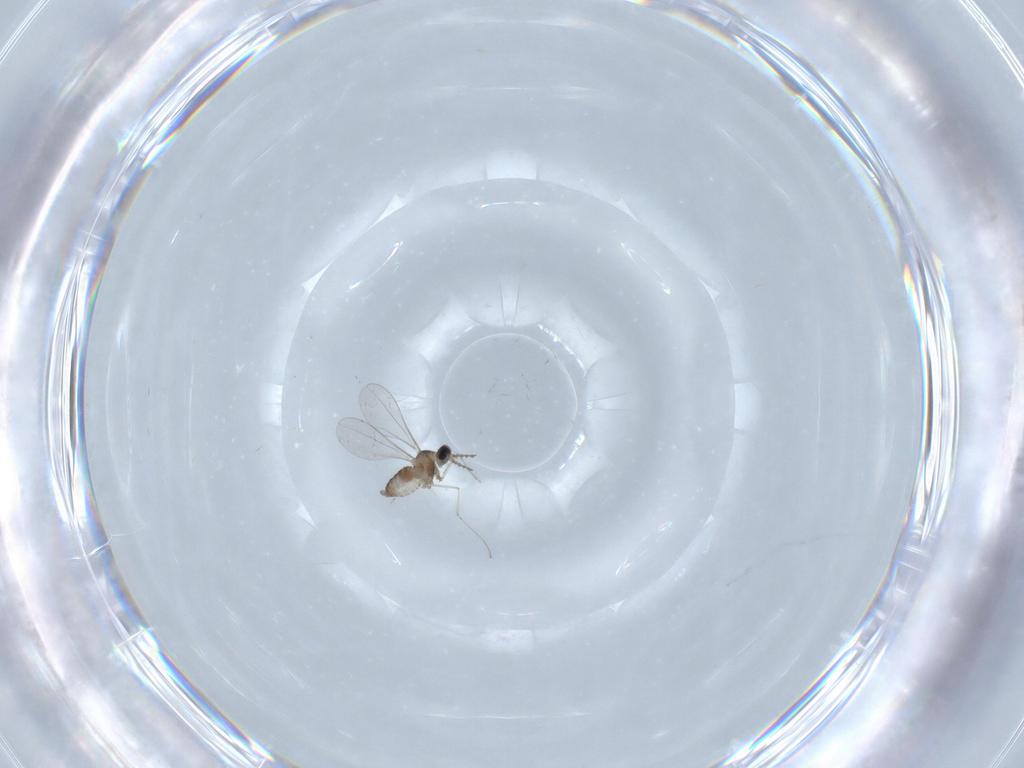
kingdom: Animalia
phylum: Arthropoda
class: Insecta
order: Diptera
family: Cecidomyiidae
